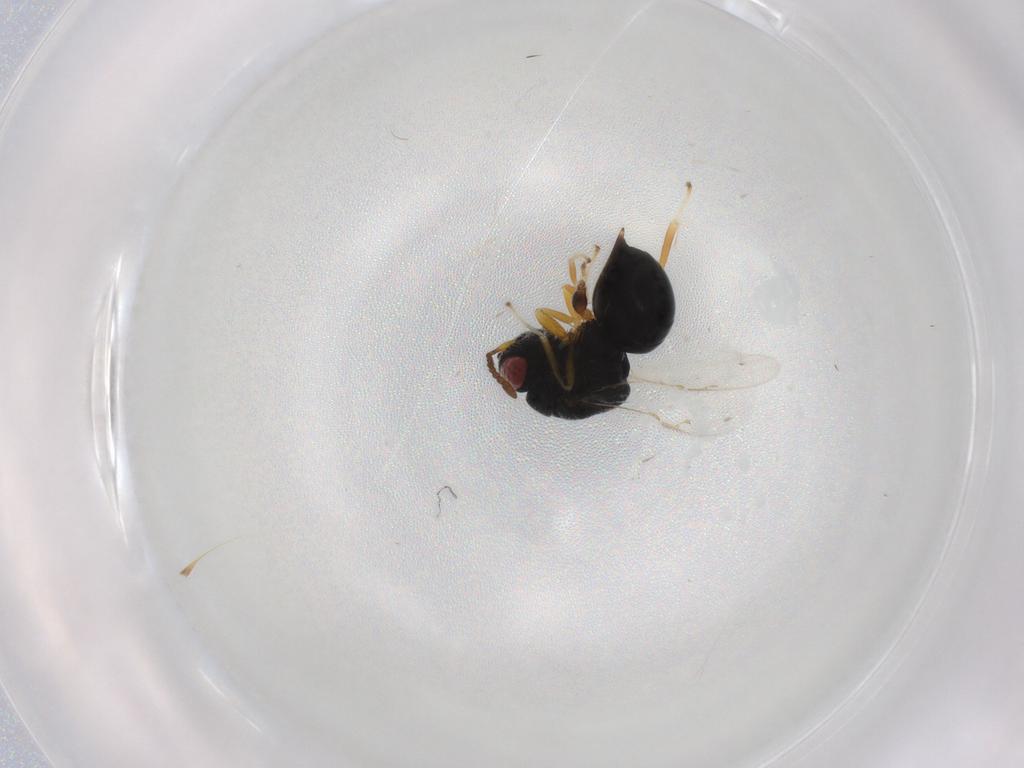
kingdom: Animalia
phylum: Arthropoda
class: Insecta
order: Hymenoptera
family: Eurytomidae
